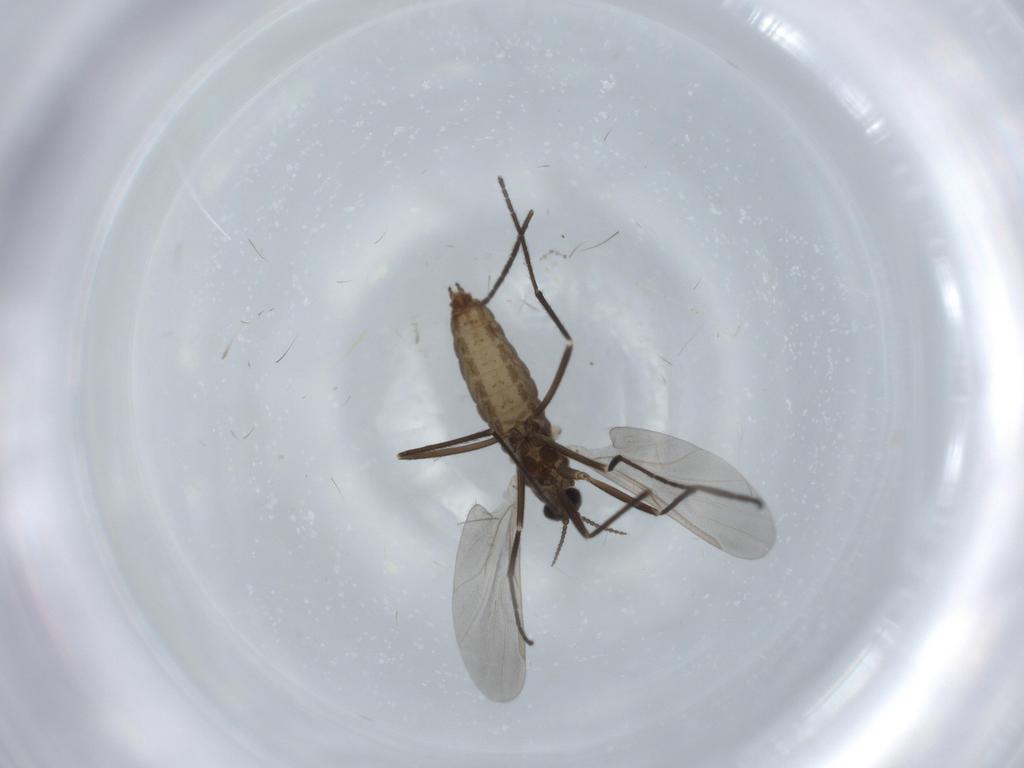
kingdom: Animalia
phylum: Arthropoda
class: Insecta
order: Diptera
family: Cecidomyiidae
